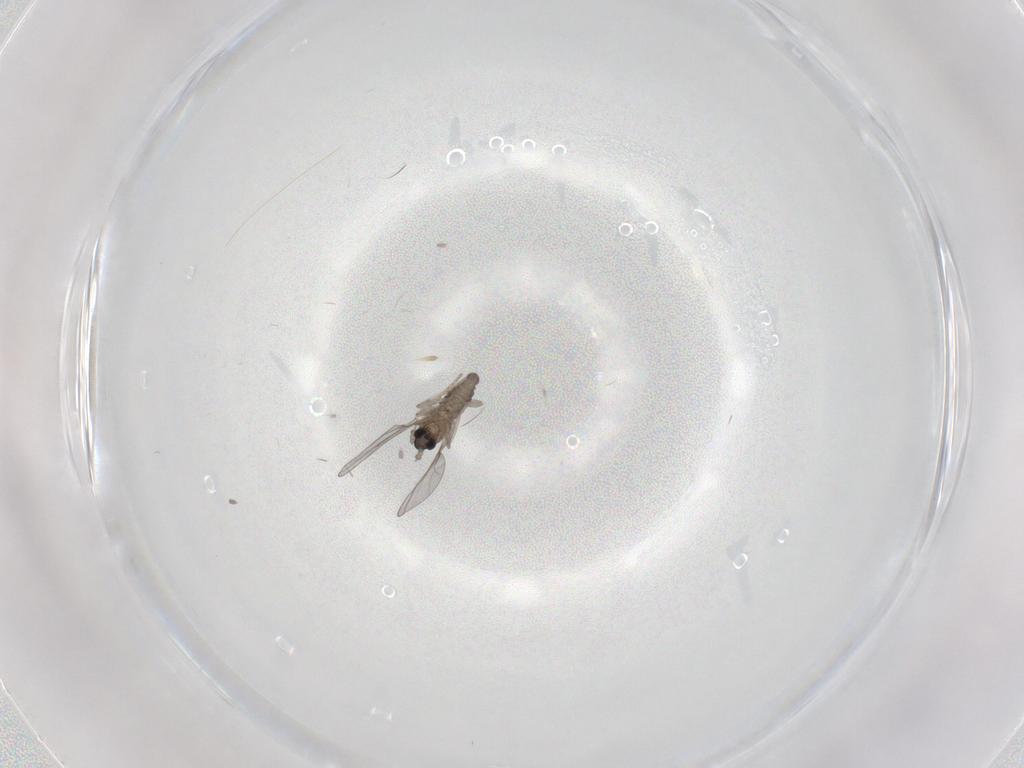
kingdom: Animalia
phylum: Arthropoda
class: Insecta
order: Diptera
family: Cecidomyiidae
